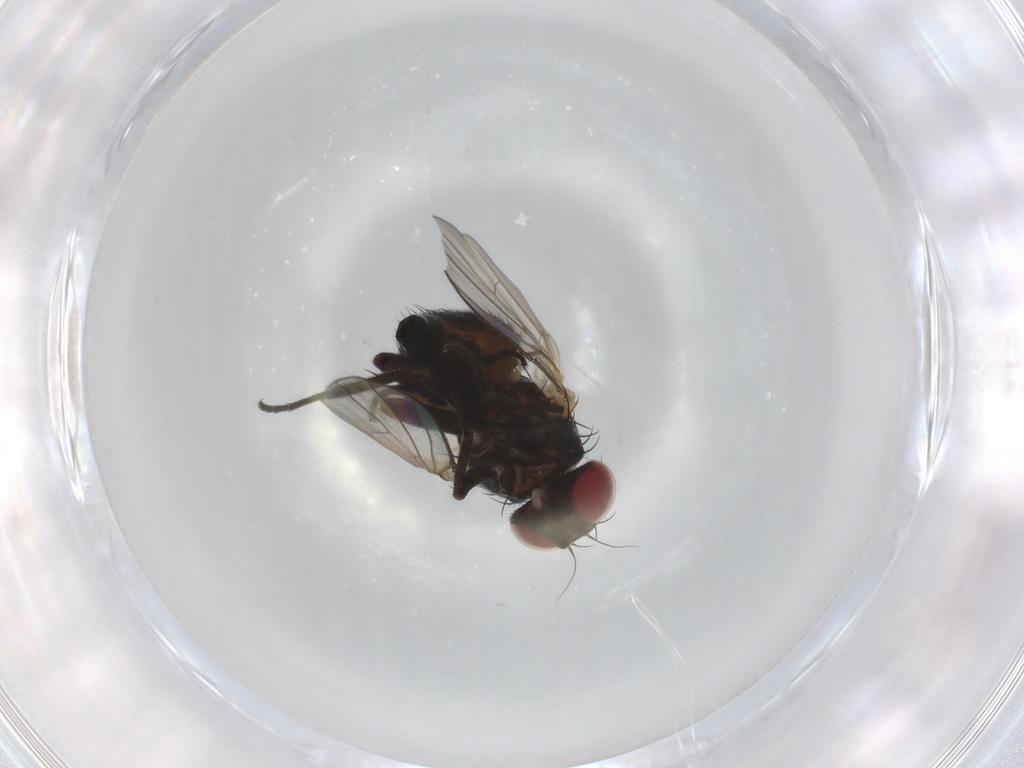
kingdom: Animalia
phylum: Arthropoda
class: Insecta
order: Diptera
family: Agromyzidae
